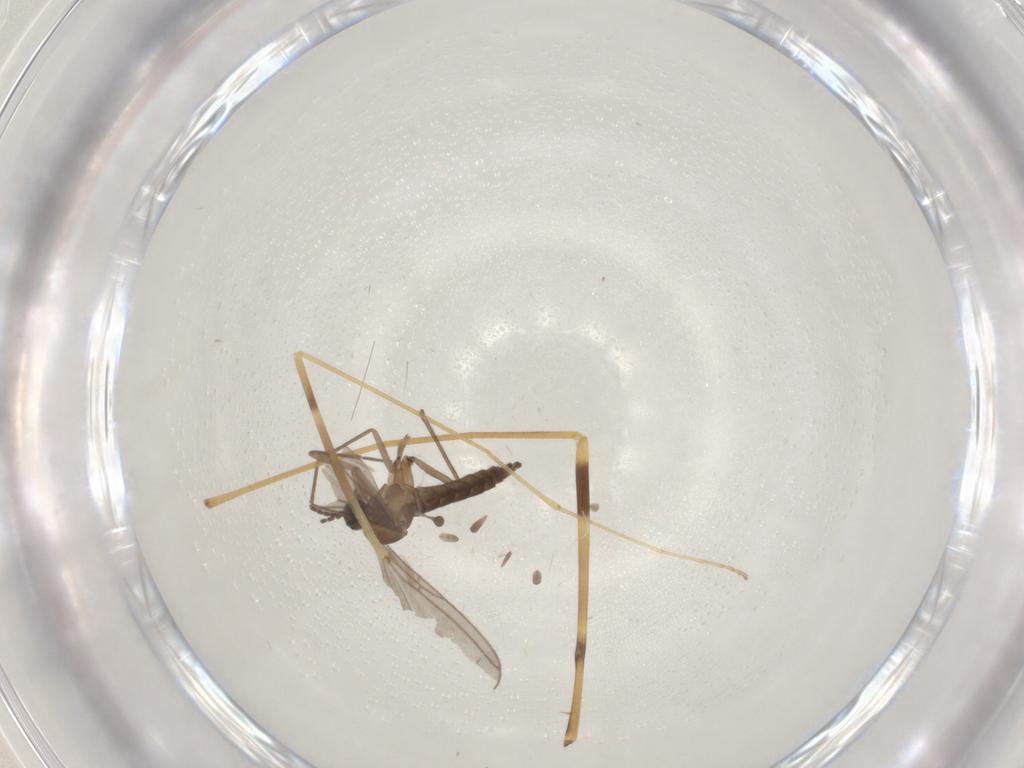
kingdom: Animalia
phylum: Arthropoda
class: Insecta
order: Diptera
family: Limoniidae
